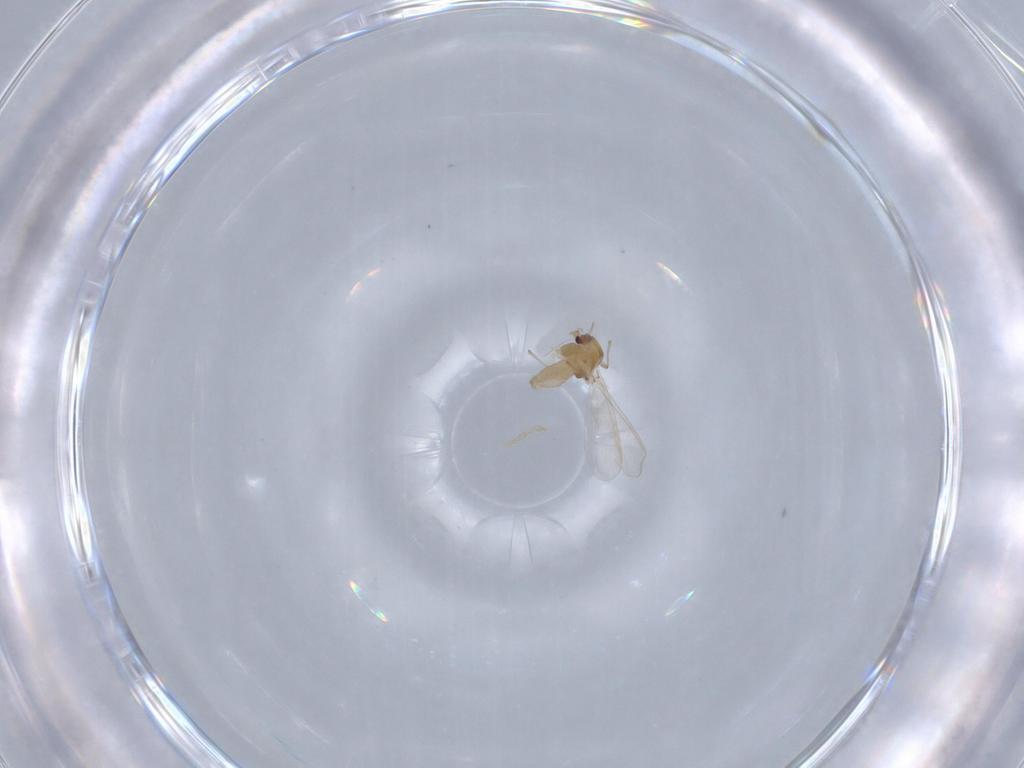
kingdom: Animalia
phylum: Arthropoda
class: Insecta
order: Diptera
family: Chironomidae
